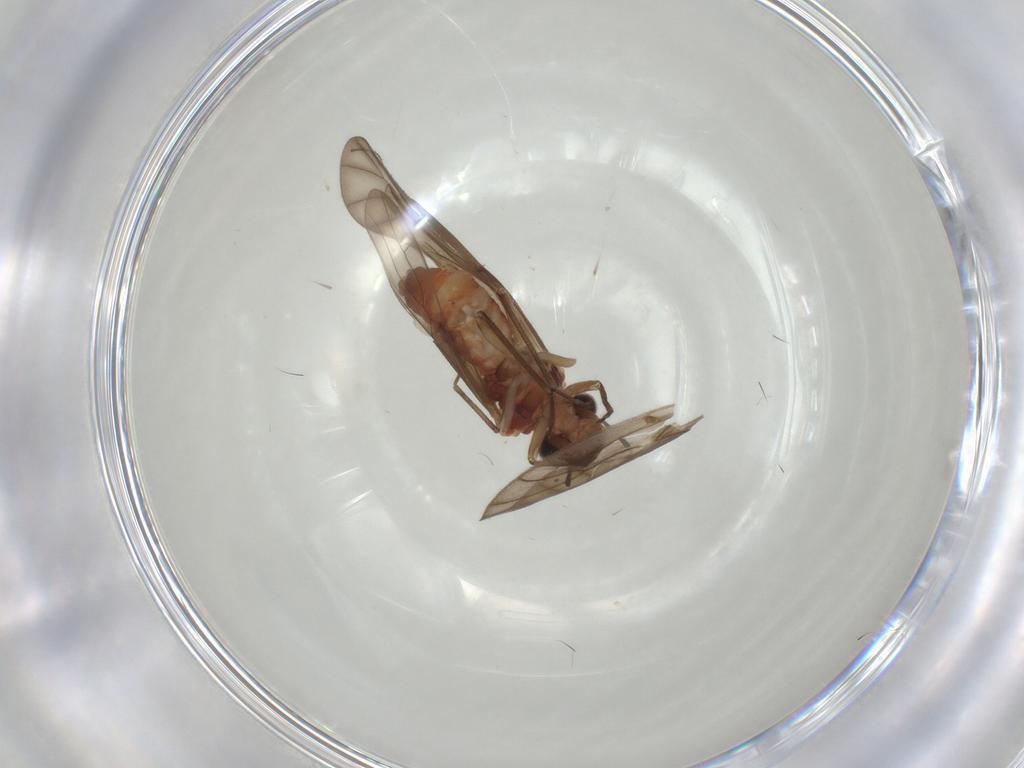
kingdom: Animalia
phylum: Arthropoda
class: Insecta
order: Psocodea
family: Caeciliusidae
